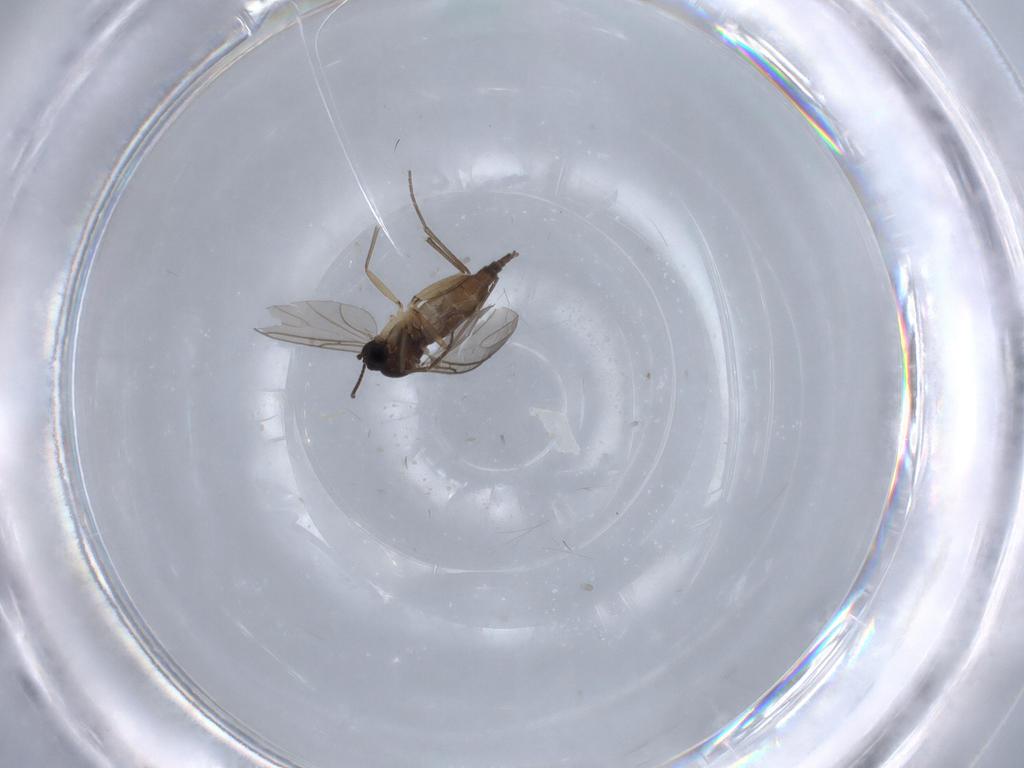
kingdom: Animalia
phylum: Arthropoda
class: Insecta
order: Diptera
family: Sciaridae
